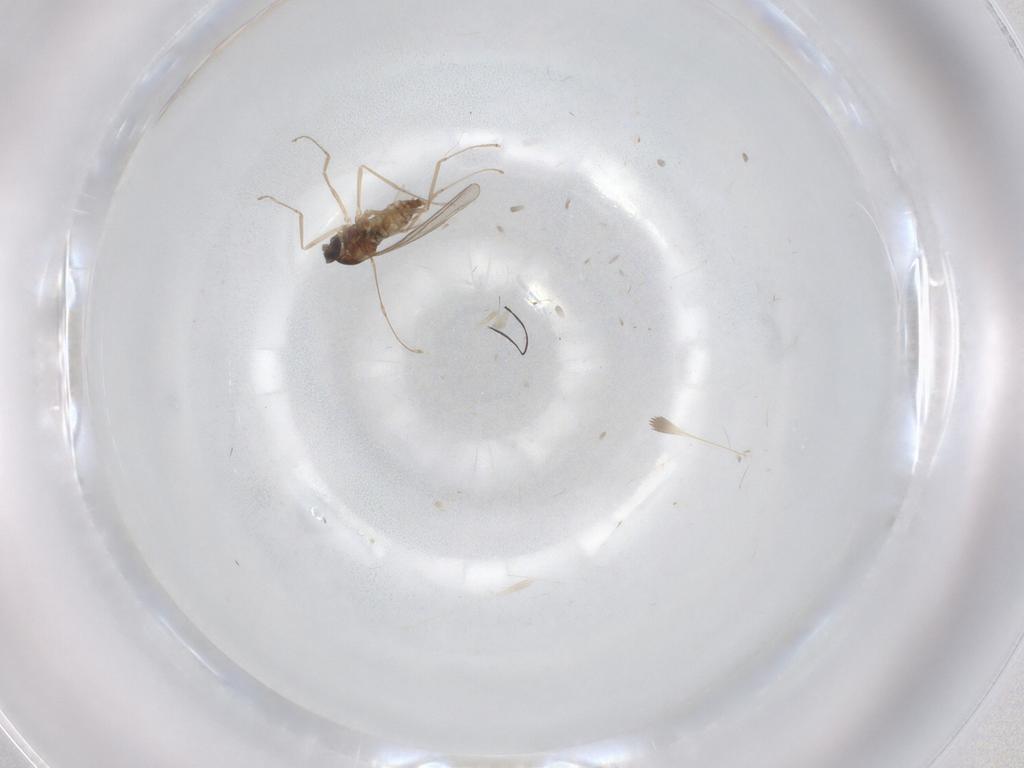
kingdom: Animalia
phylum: Arthropoda
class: Insecta
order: Diptera
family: Cecidomyiidae
